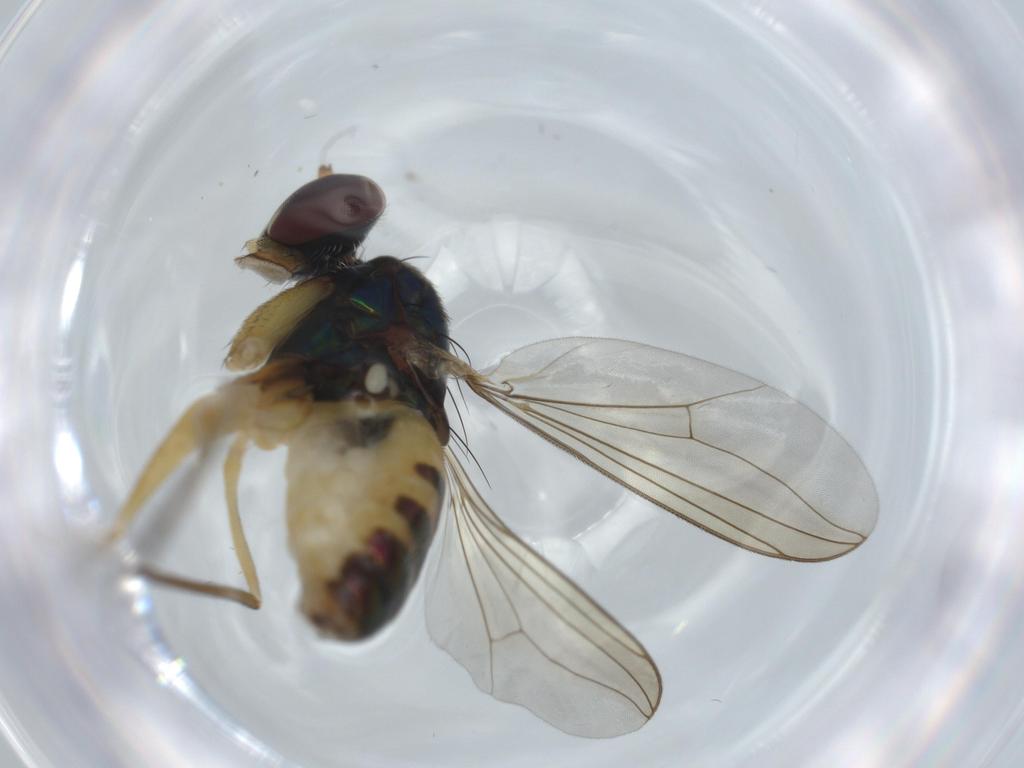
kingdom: Animalia
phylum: Arthropoda
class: Insecta
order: Diptera
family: Dolichopodidae
